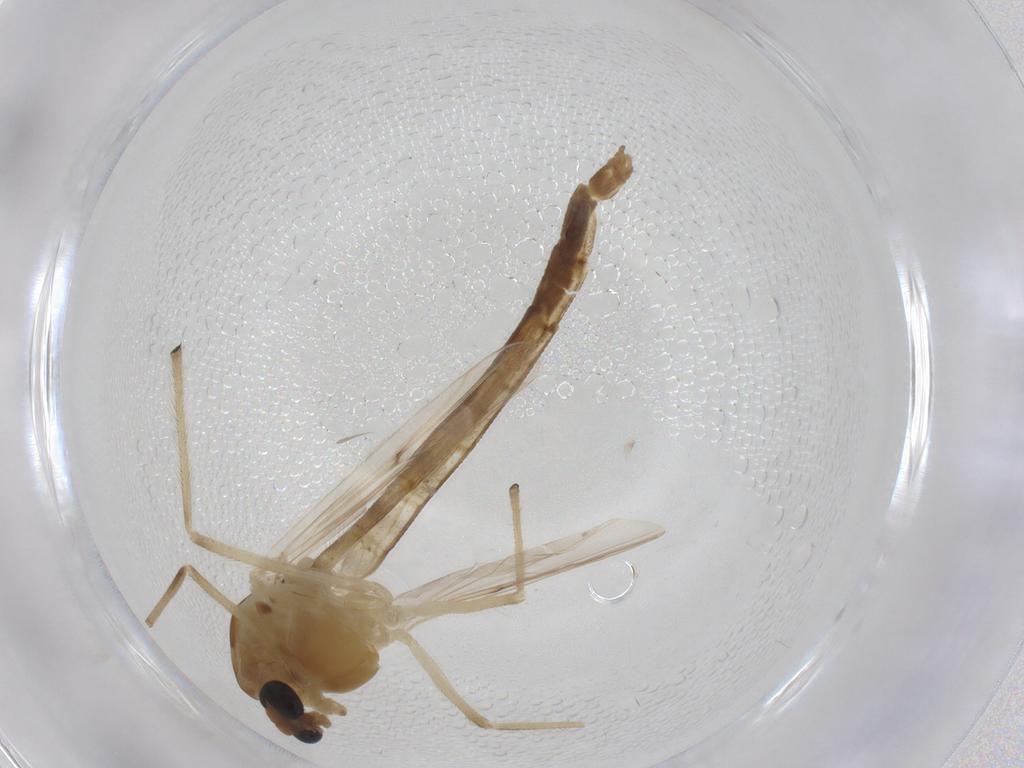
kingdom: Animalia
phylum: Arthropoda
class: Insecta
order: Diptera
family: Chironomidae
